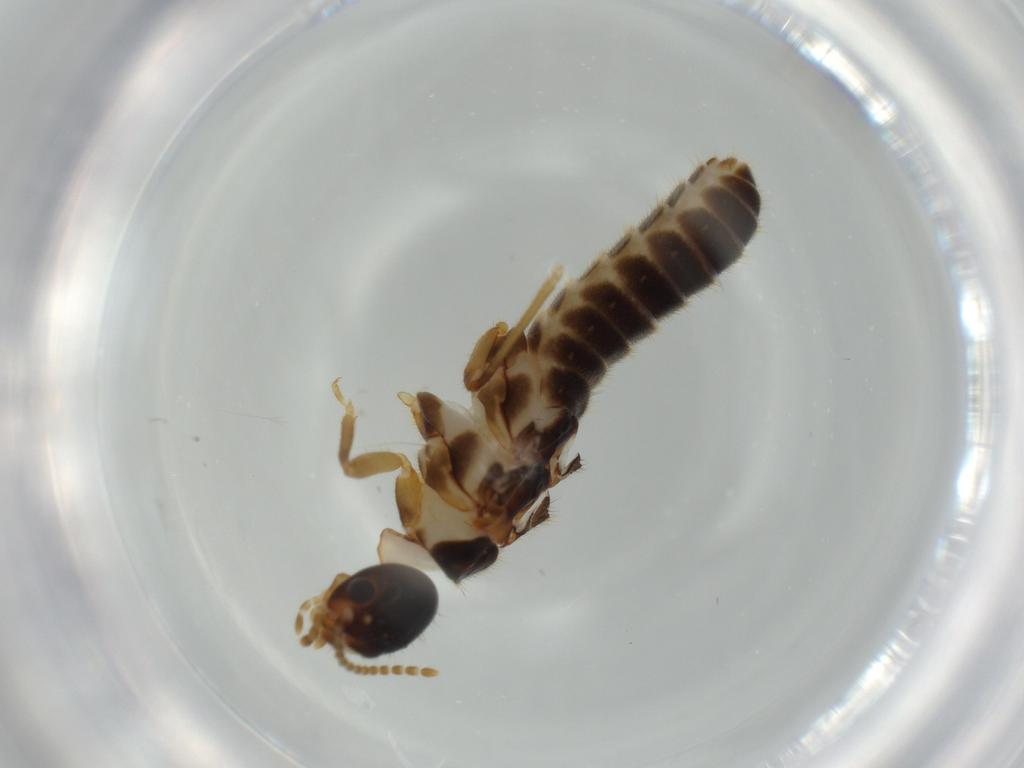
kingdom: Animalia
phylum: Arthropoda
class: Insecta
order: Blattodea
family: Termitidae
